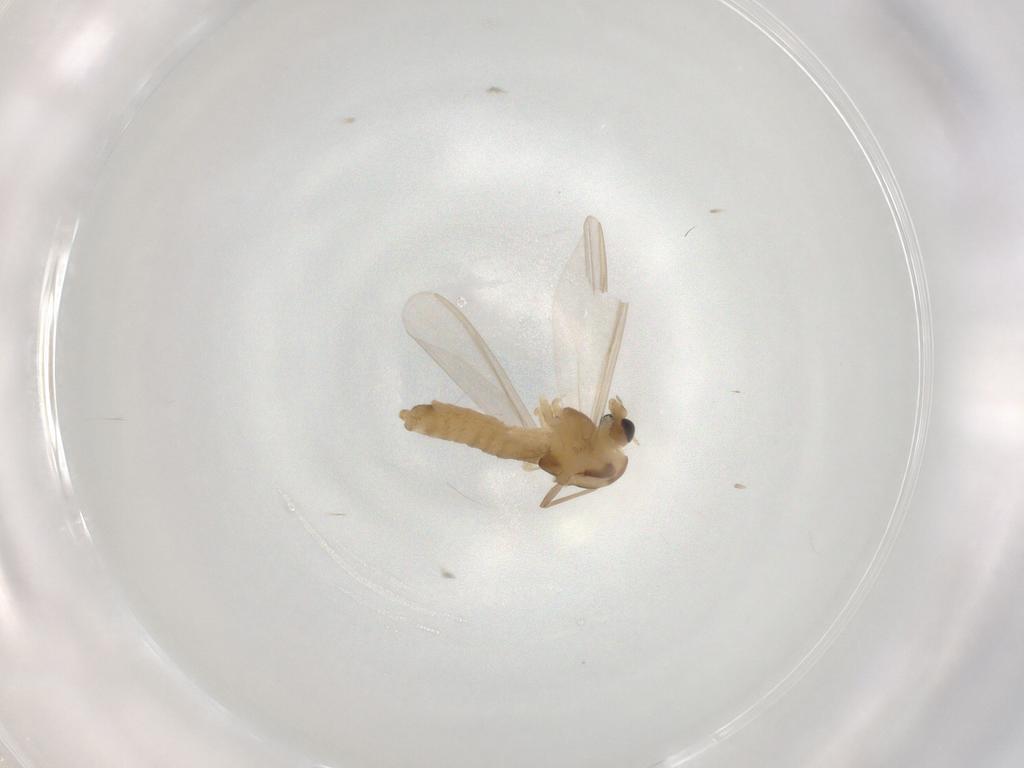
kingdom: Animalia
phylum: Arthropoda
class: Insecta
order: Diptera
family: Chironomidae
